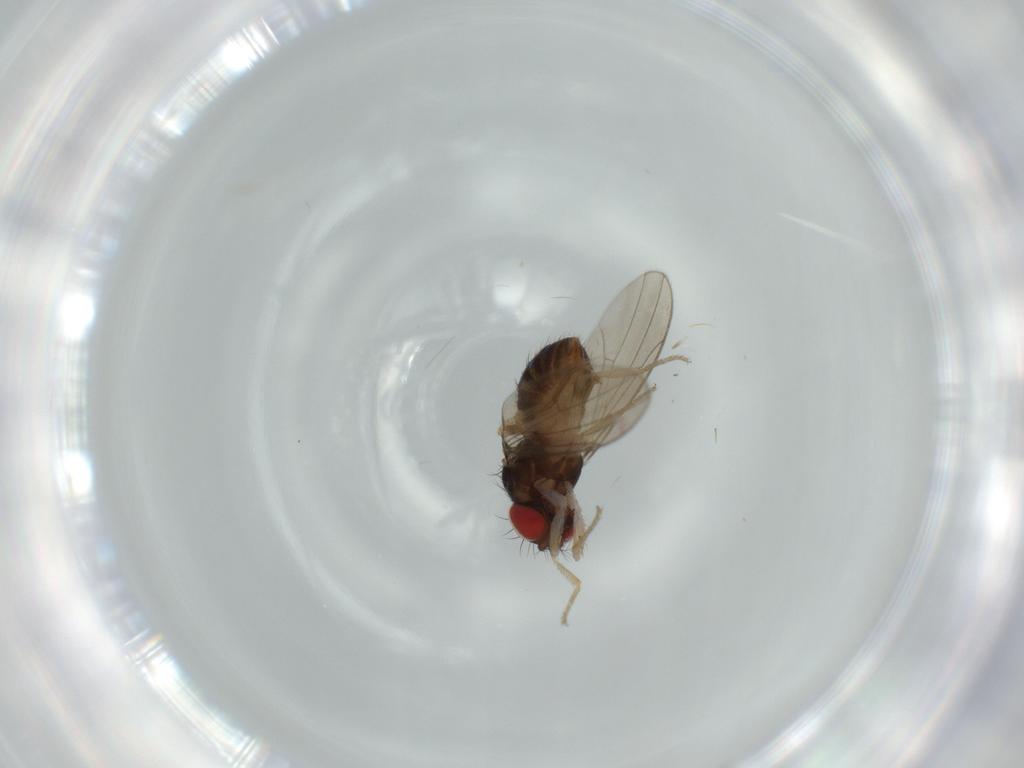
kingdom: Animalia
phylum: Arthropoda
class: Insecta
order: Diptera
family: Drosophilidae
